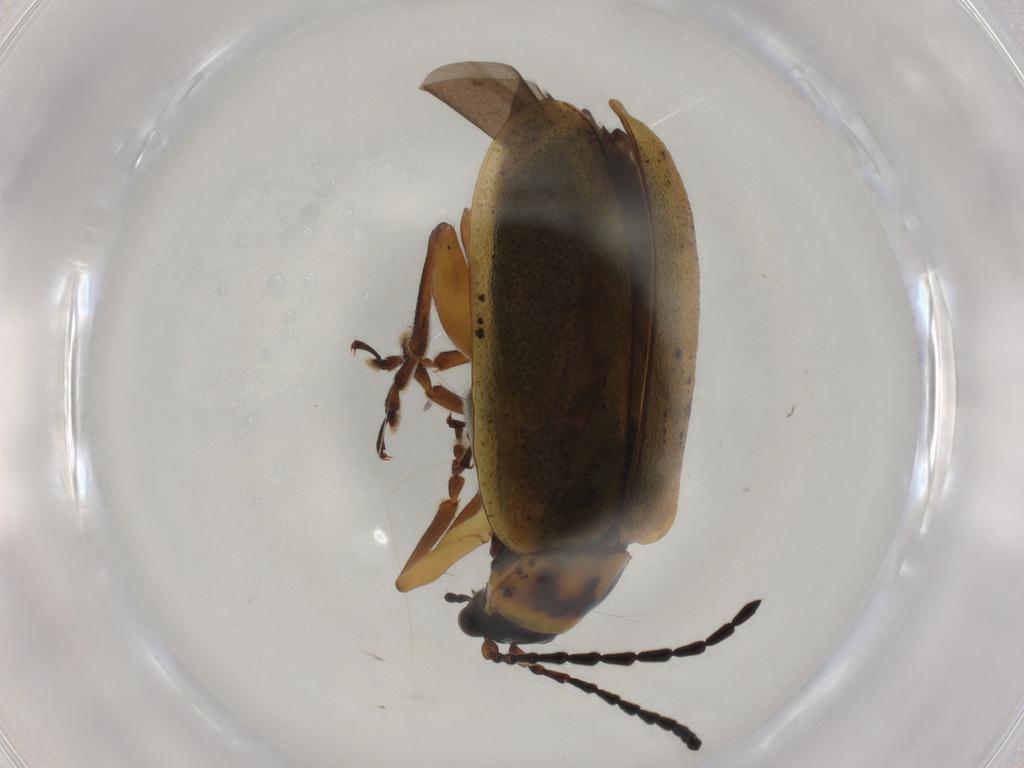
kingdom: Animalia
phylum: Arthropoda
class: Insecta
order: Coleoptera
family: Chrysomelidae
